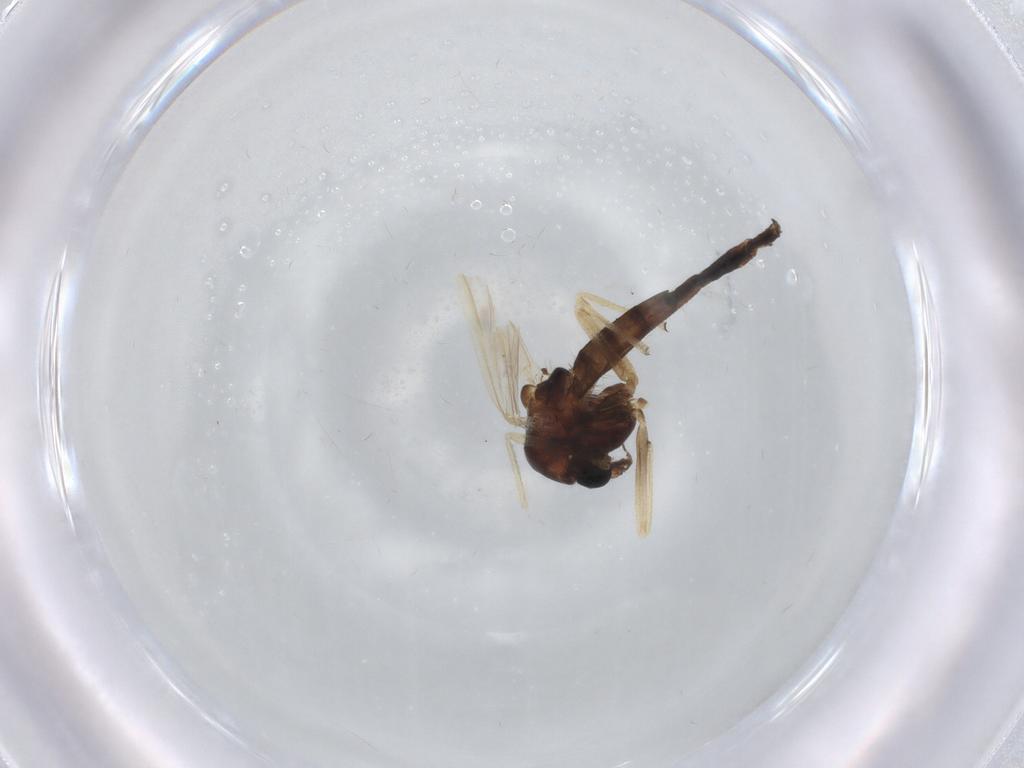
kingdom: Animalia
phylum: Arthropoda
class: Insecta
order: Diptera
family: Chironomidae
